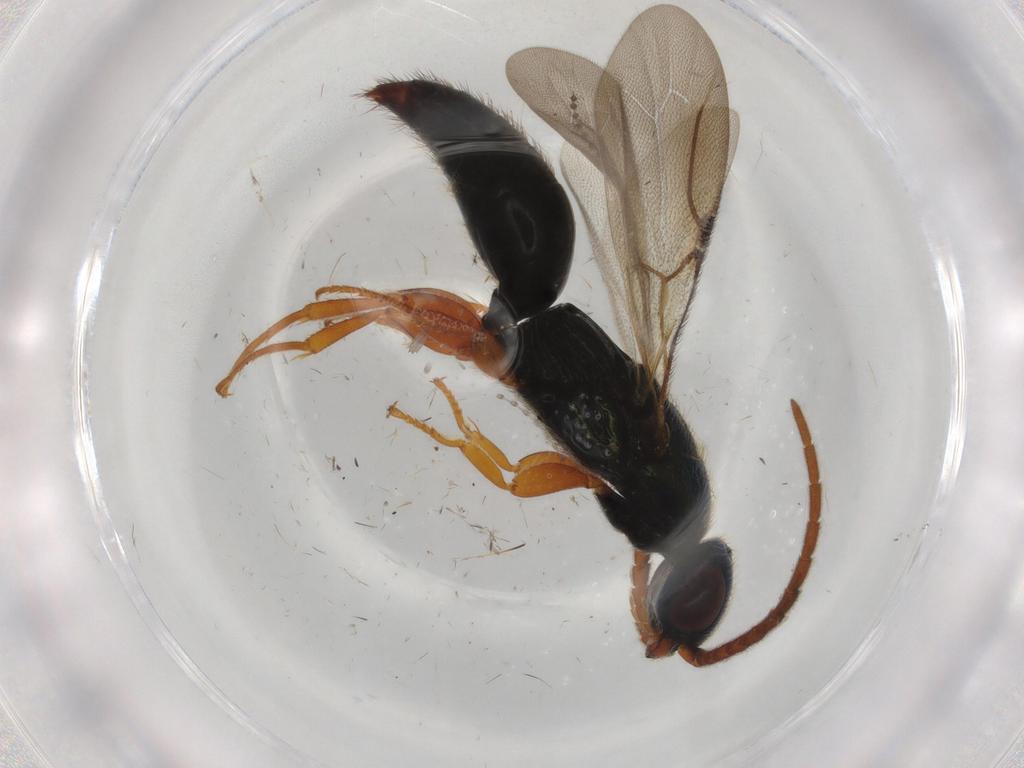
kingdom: Animalia
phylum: Arthropoda
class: Insecta
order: Hymenoptera
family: Bethylidae
